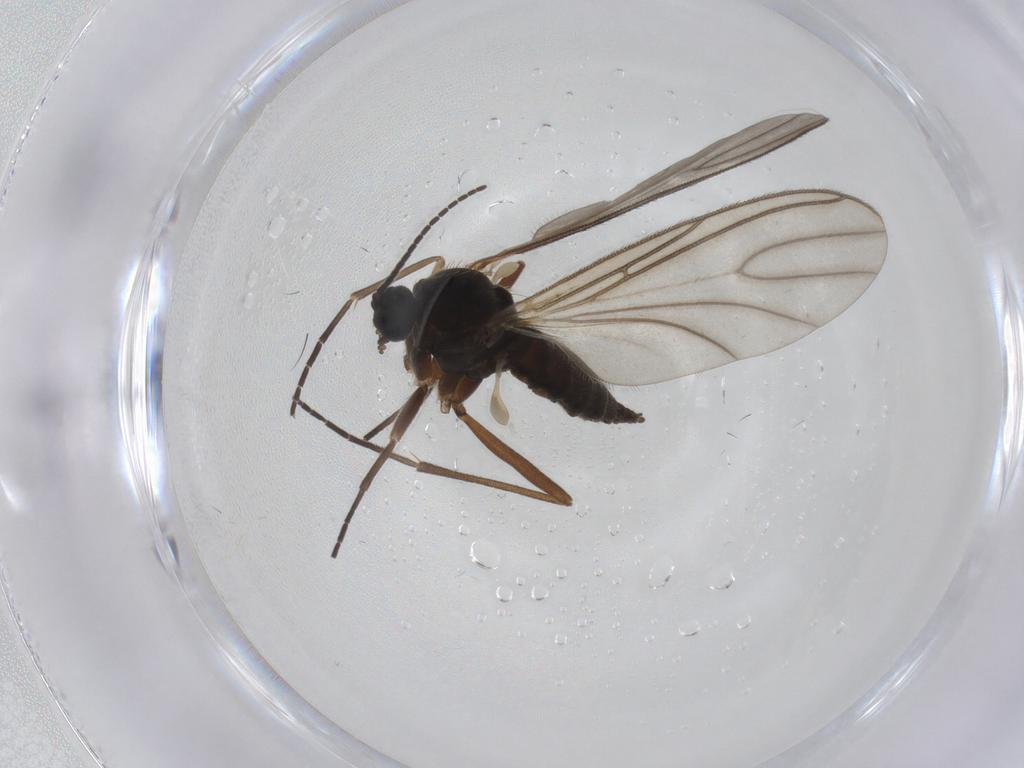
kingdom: Animalia
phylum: Arthropoda
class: Insecta
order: Diptera
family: Sciaridae
